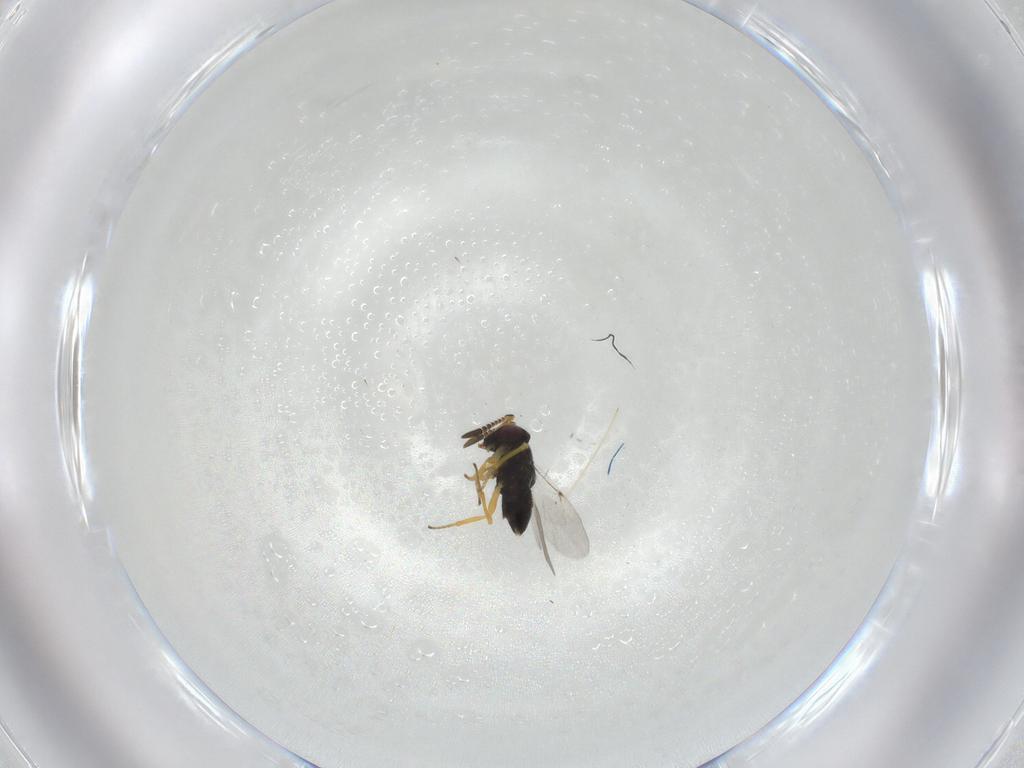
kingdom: Animalia
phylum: Arthropoda
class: Insecta
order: Hymenoptera
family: Encyrtidae
